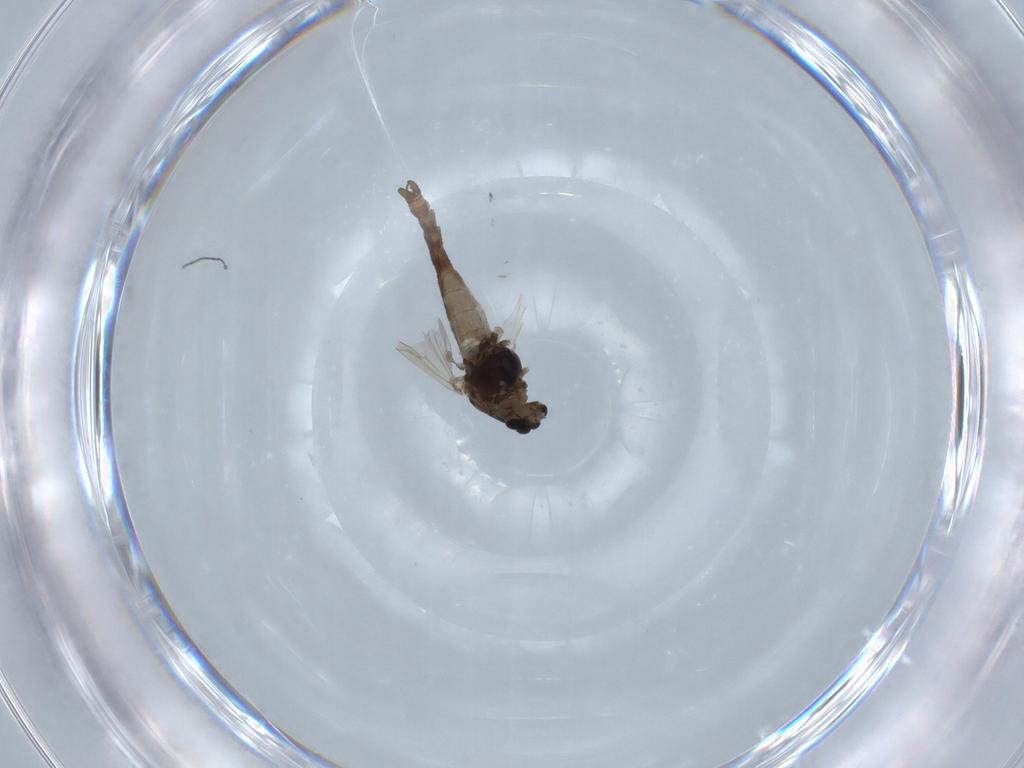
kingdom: Animalia
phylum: Arthropoda
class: Insecta
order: Diptera
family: Chironomidae
